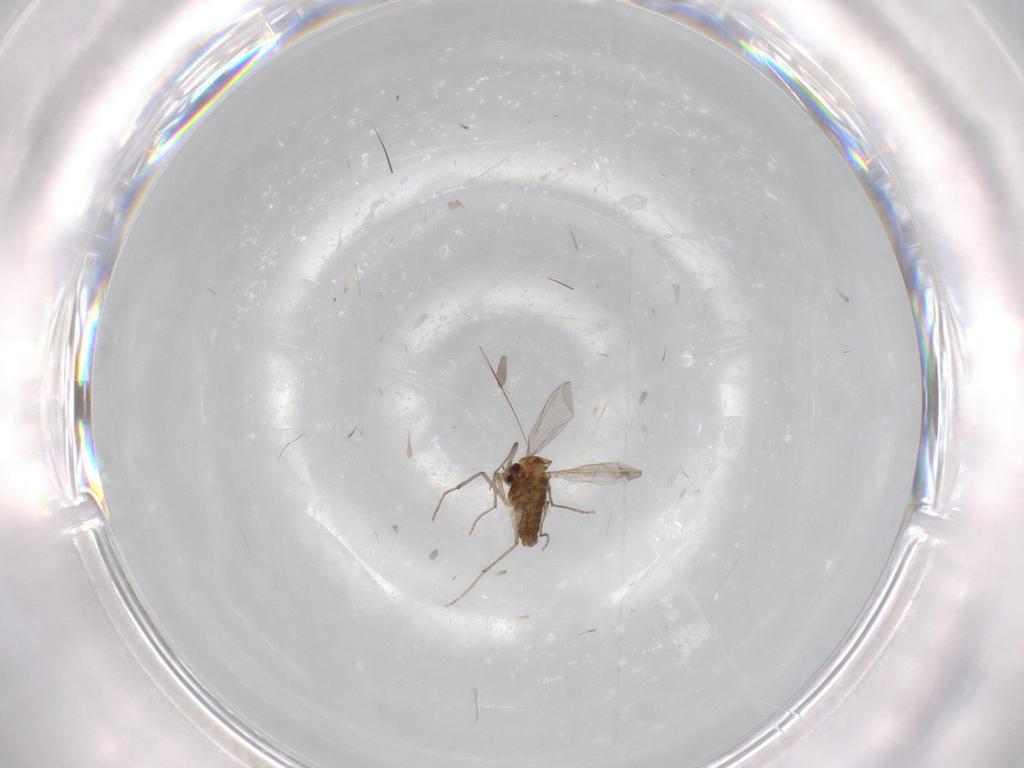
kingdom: Animalia
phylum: Arthropoda
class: Insecta
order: Diptera
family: Chironomidae
